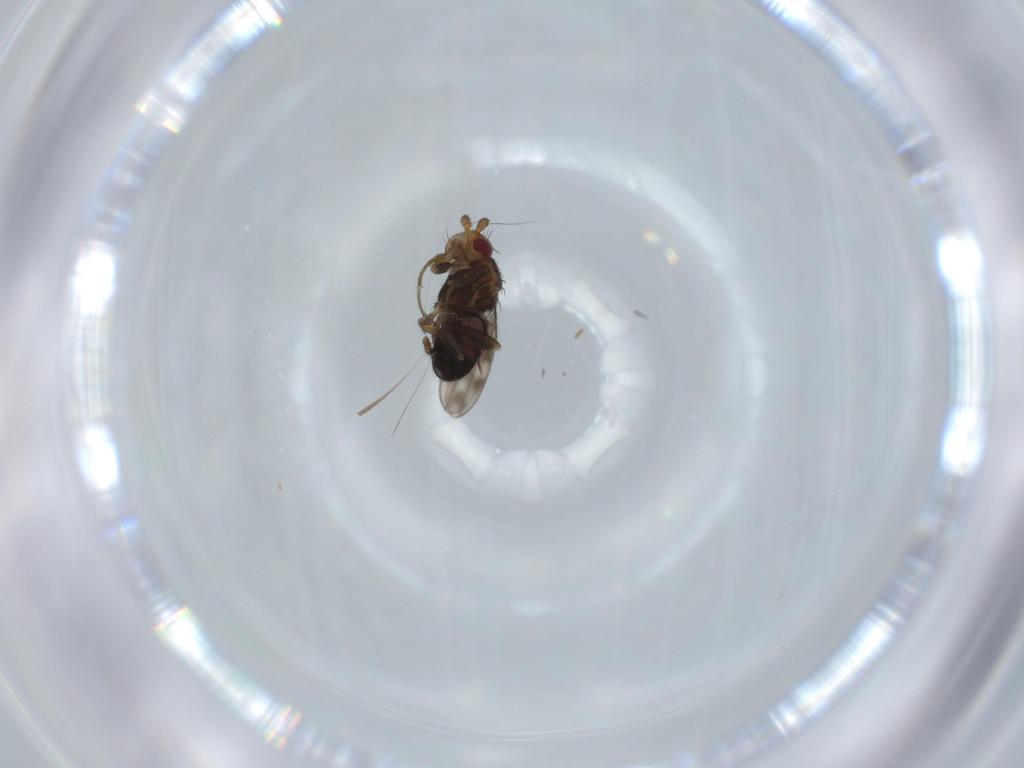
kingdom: Animalia
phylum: Arthropoda
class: Insecta
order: Diptera
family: Sphaeroceridae
